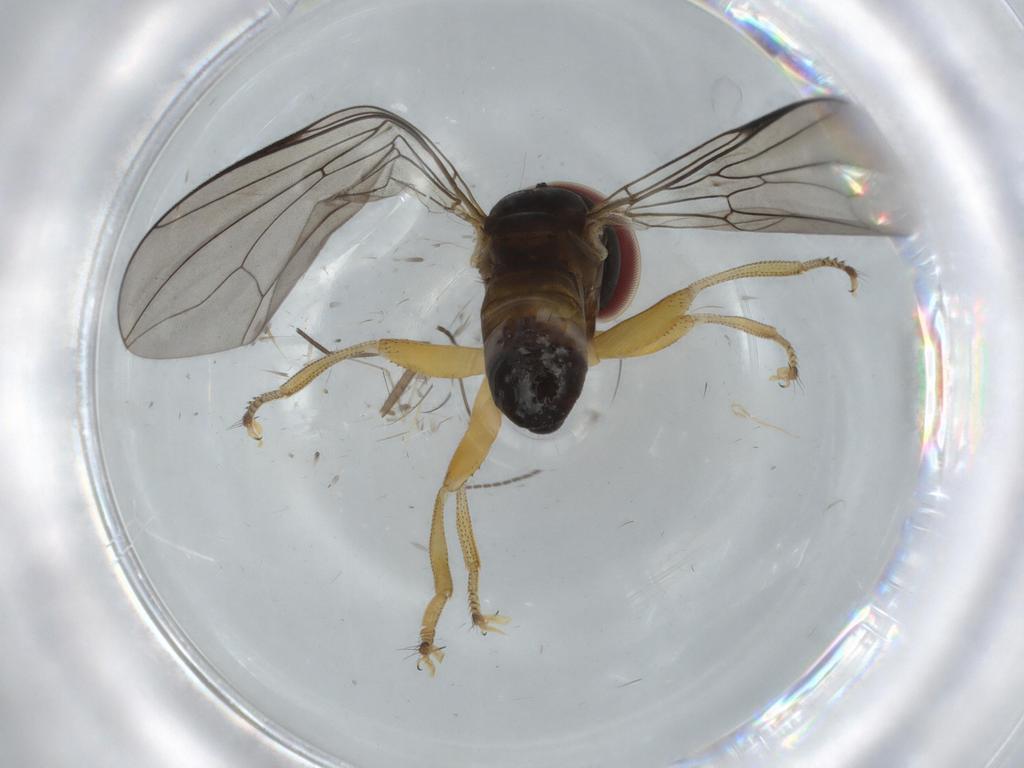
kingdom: Animalia
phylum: Arthropoda
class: Insecta
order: Diptera
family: Pipunculidae
